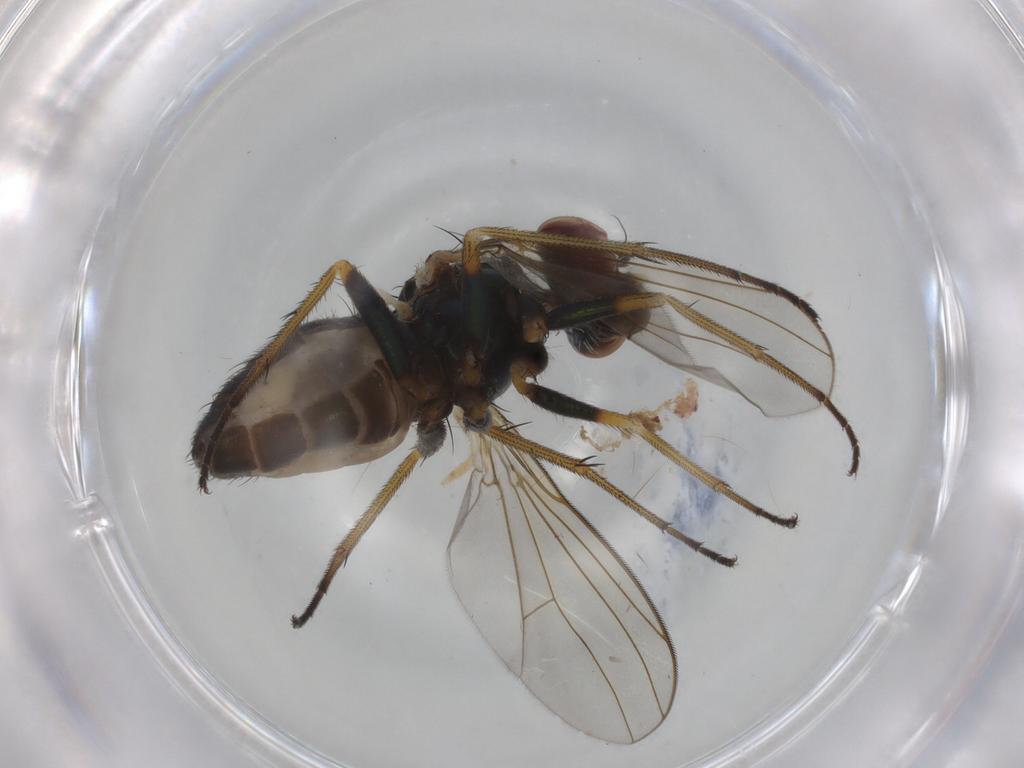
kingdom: Animalia
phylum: Arthropoda
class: Insecta
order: Diptera
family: Dolichopodidae
